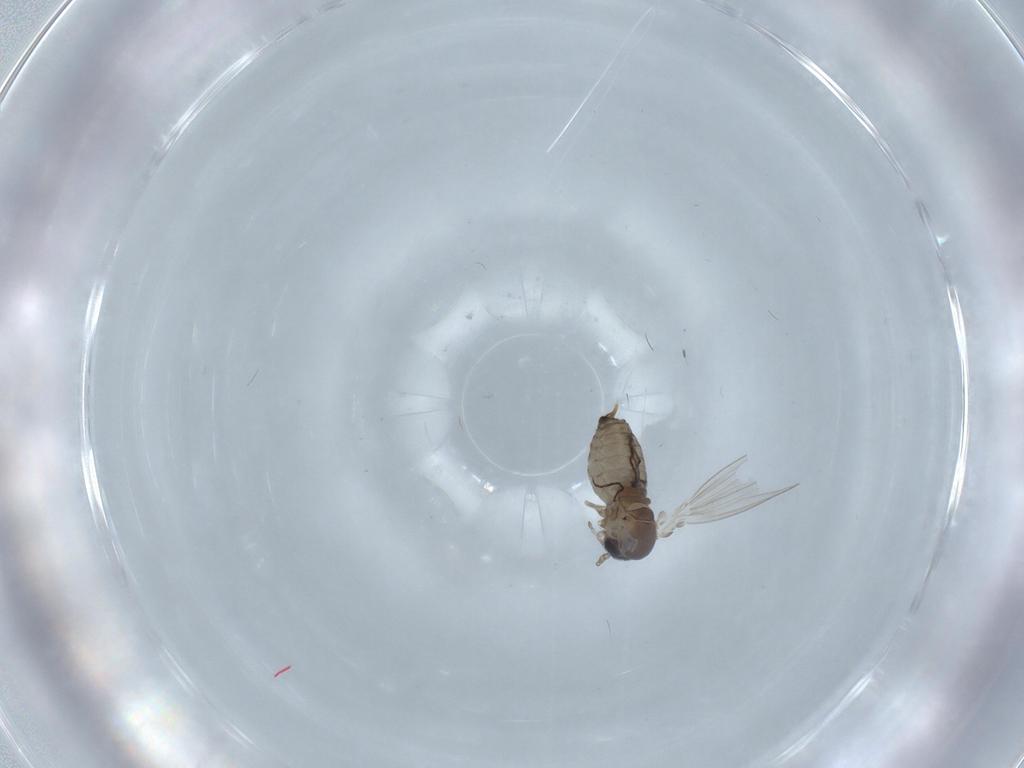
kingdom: Animalia
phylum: Arthropoda
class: Insecta
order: Diptera
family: Psychodidae
